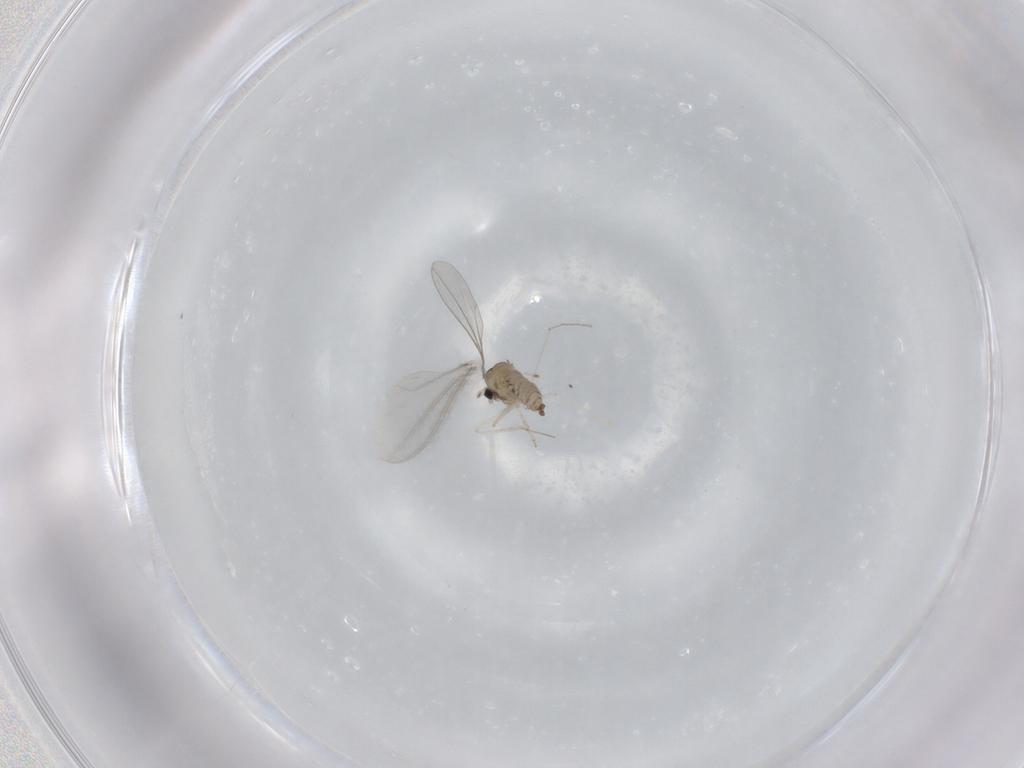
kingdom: Animalia
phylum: Arthropoda
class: Insecta
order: Diptera
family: Cecidomyiidae
